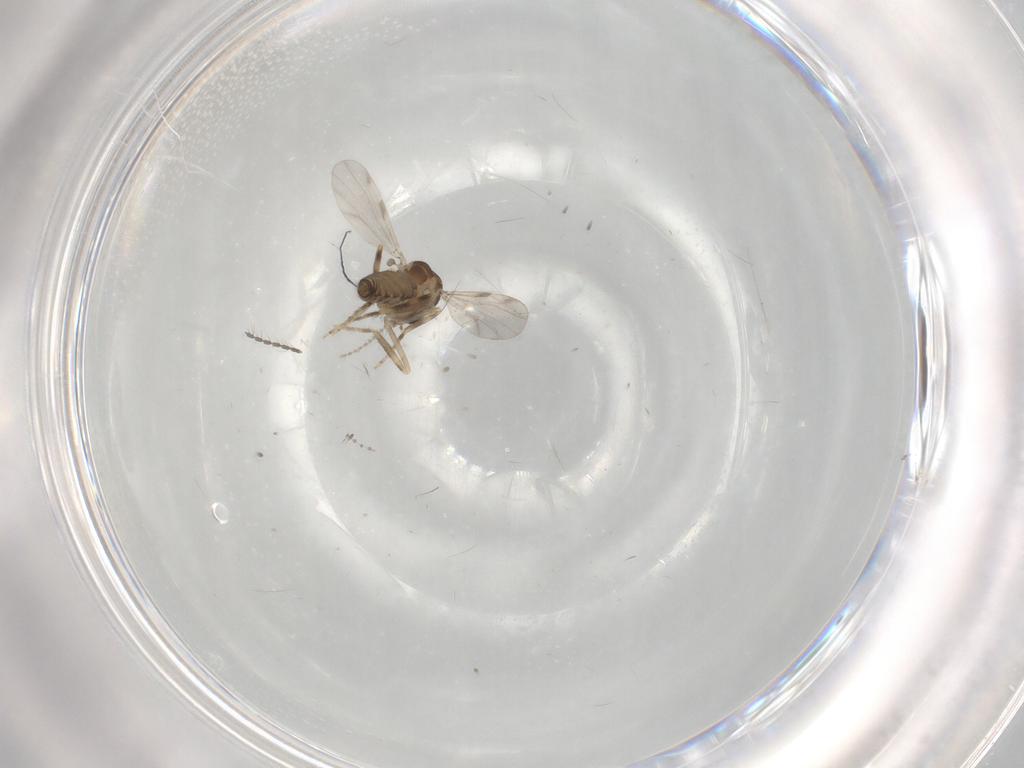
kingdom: Animalia
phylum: Arthropoda
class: Insecta
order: Diptera
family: Ceratopogonidae
